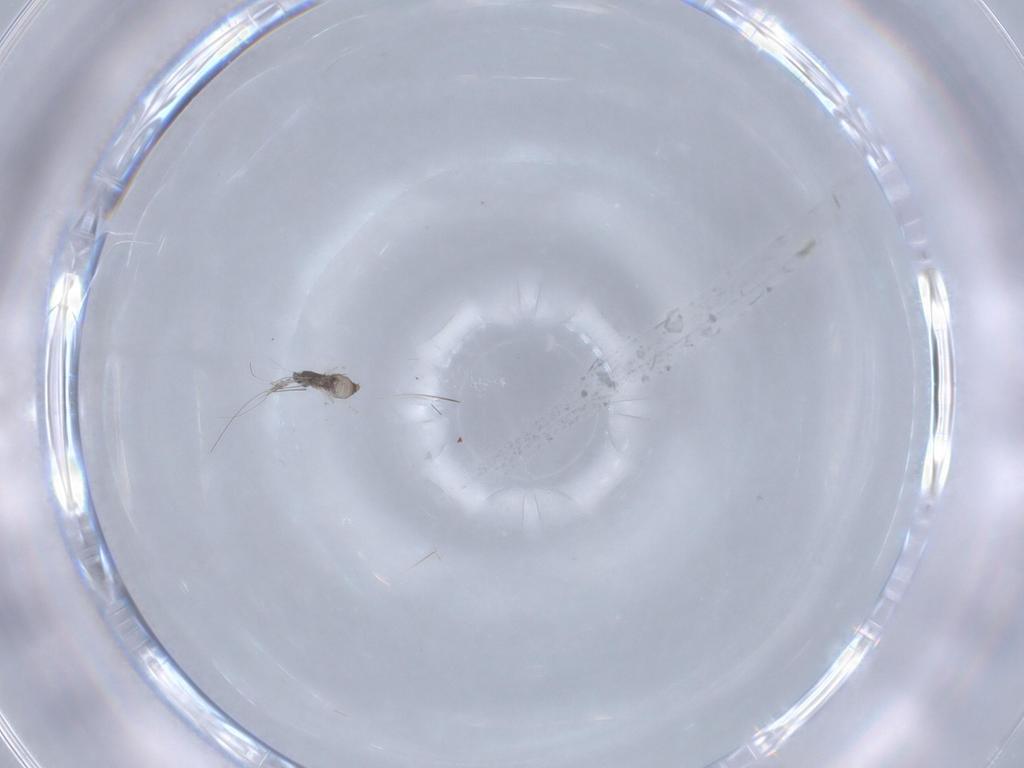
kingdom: Animalia
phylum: Arthropoda
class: Insecta
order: Diptera
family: Cecidomyiidae
